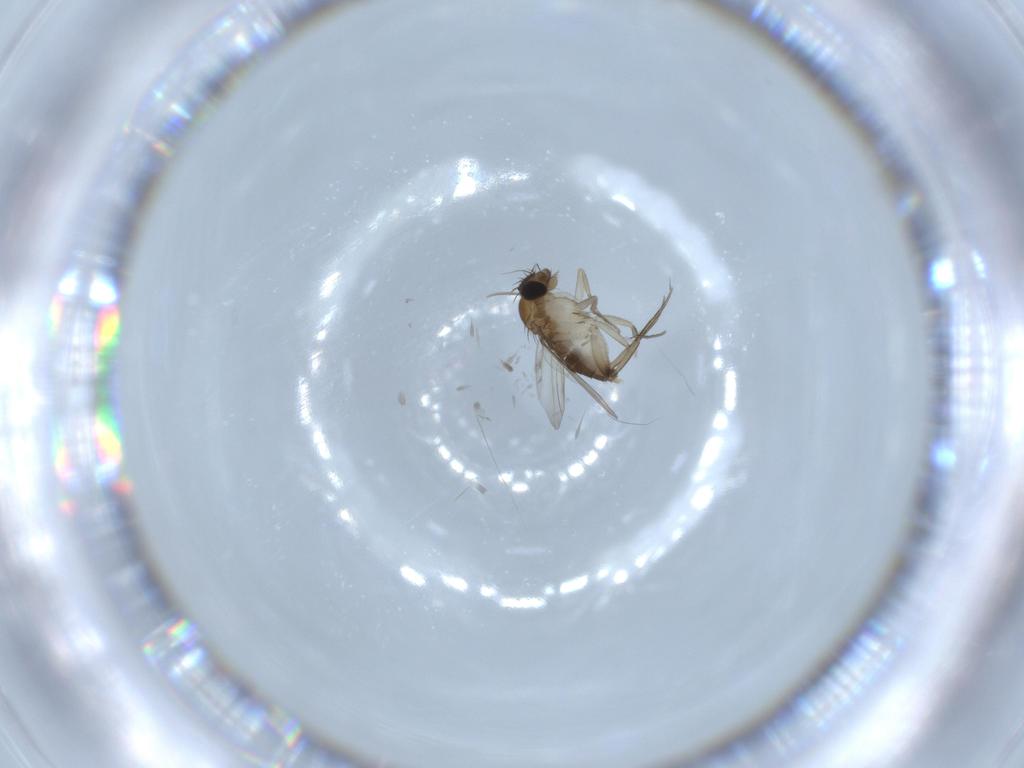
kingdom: Animalia
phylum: Arthropoda
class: Insecta
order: Diptera
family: Phoridae
